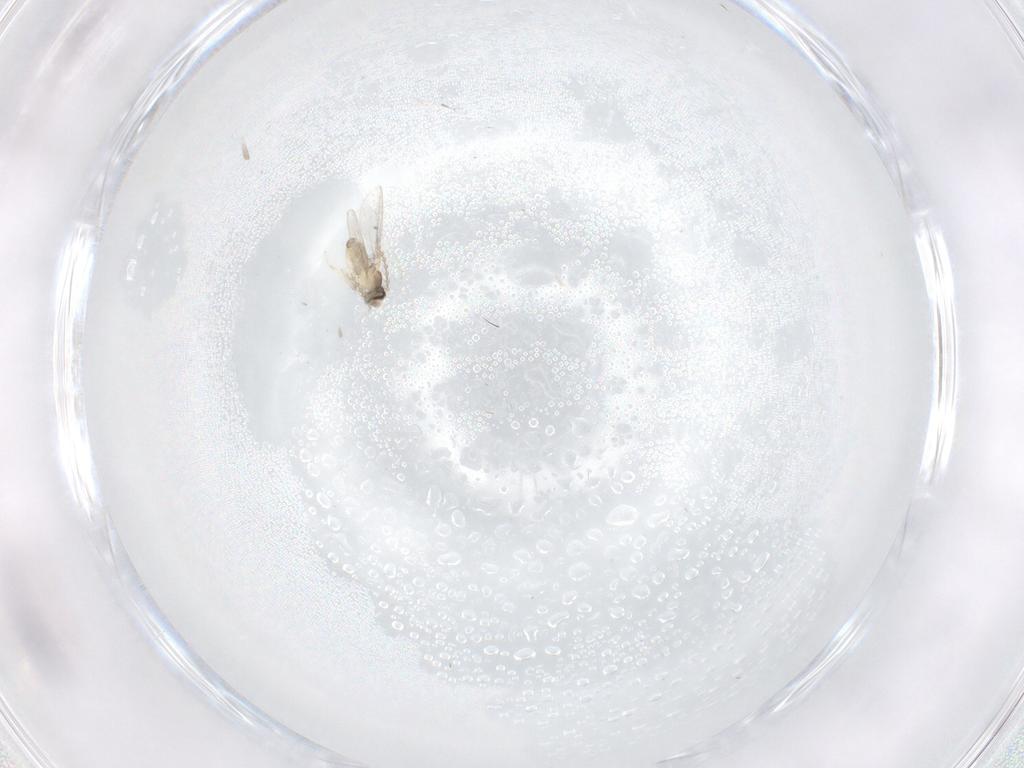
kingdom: Animalia
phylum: Arthropoda
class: Insecta
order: Diptera
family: Cecidomyiidae
